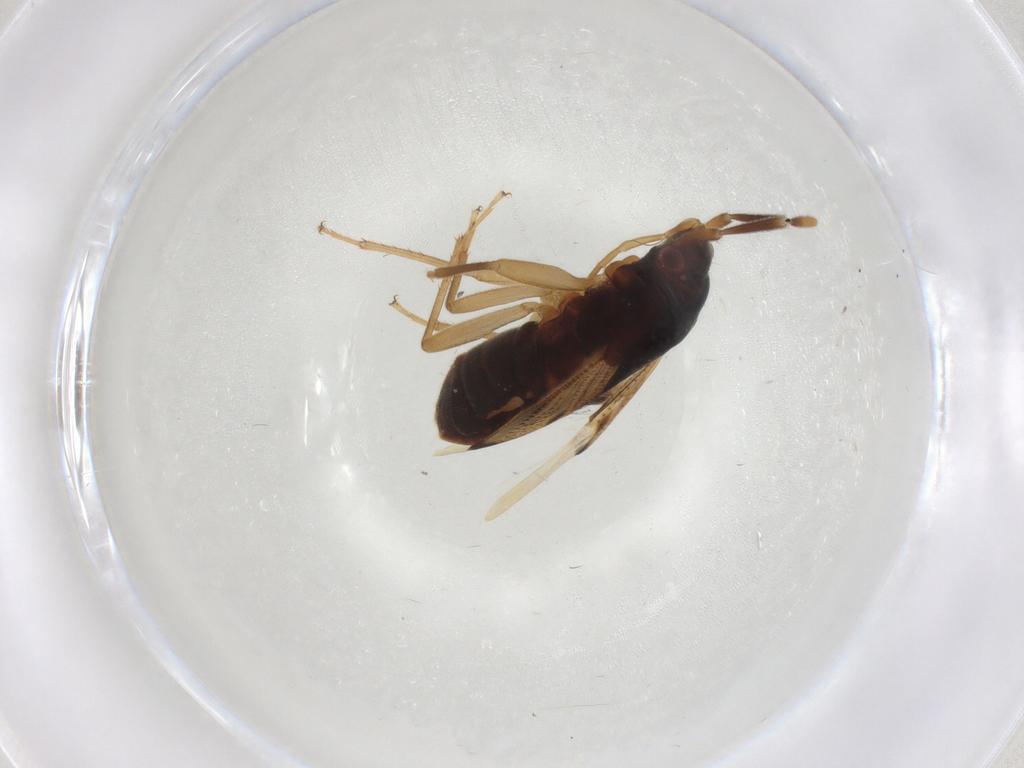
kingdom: Animalia
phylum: Arthropoda
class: Insecta
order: Hemiptera
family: Rhyparochromidae
